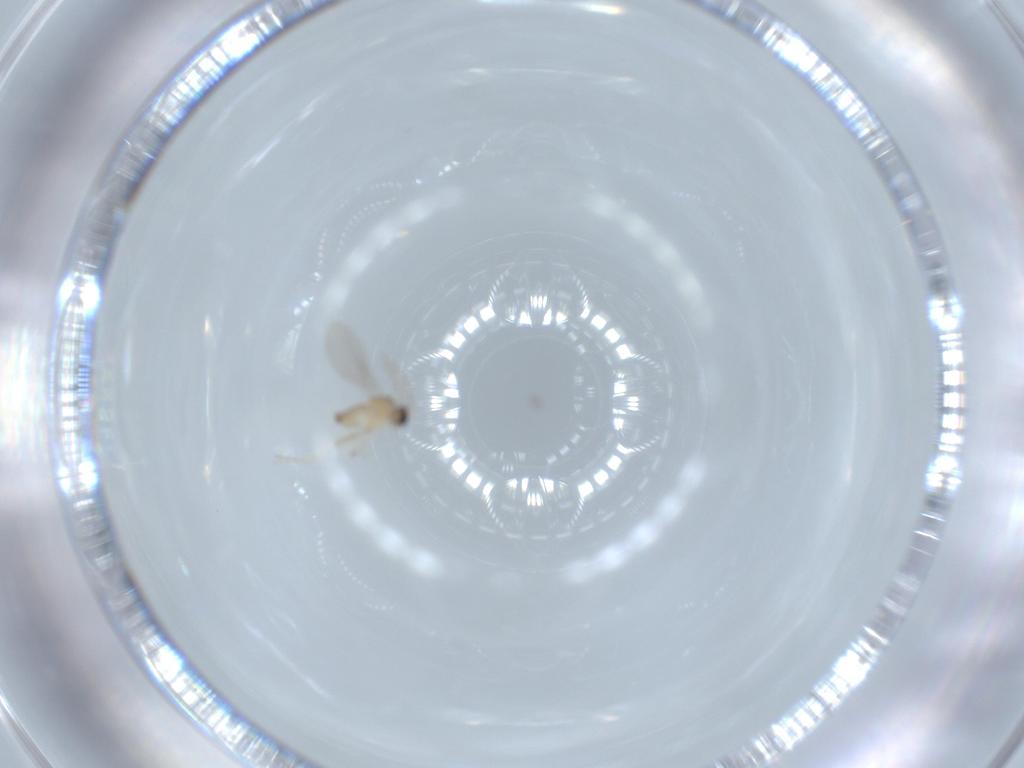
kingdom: Animalia
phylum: Arthropoda
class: Insecta
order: Diptera
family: Cecidomyiidae
